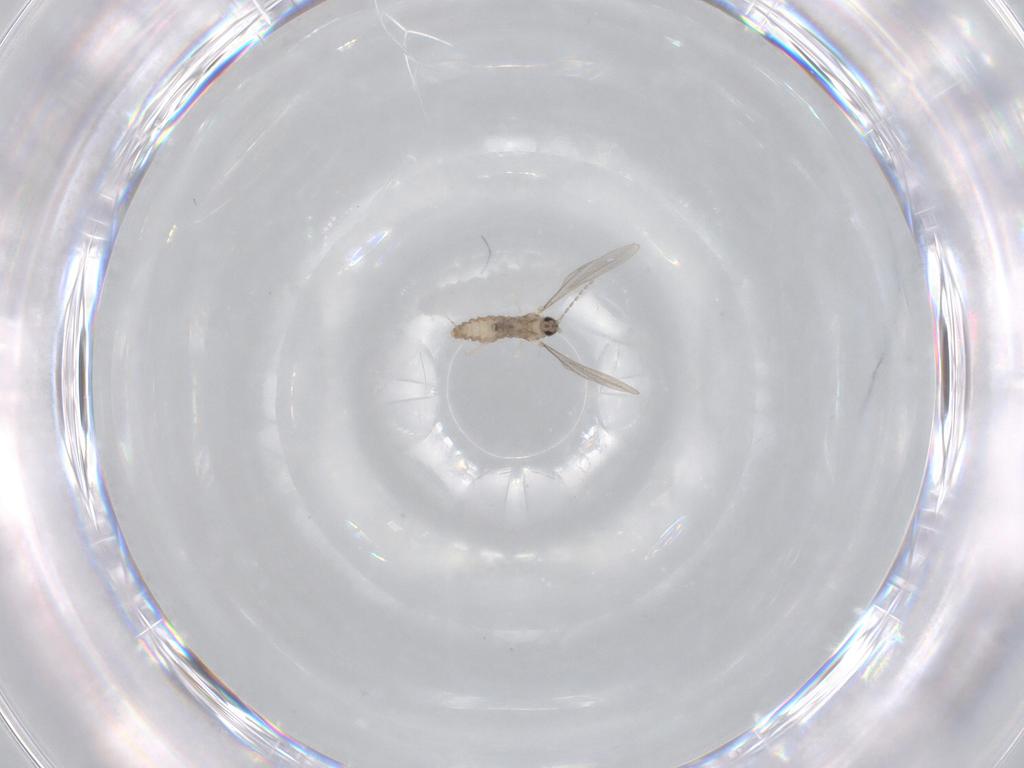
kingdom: Animalia
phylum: Arthropoda
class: Insecta
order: Diptera
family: Cecidomyiidae
